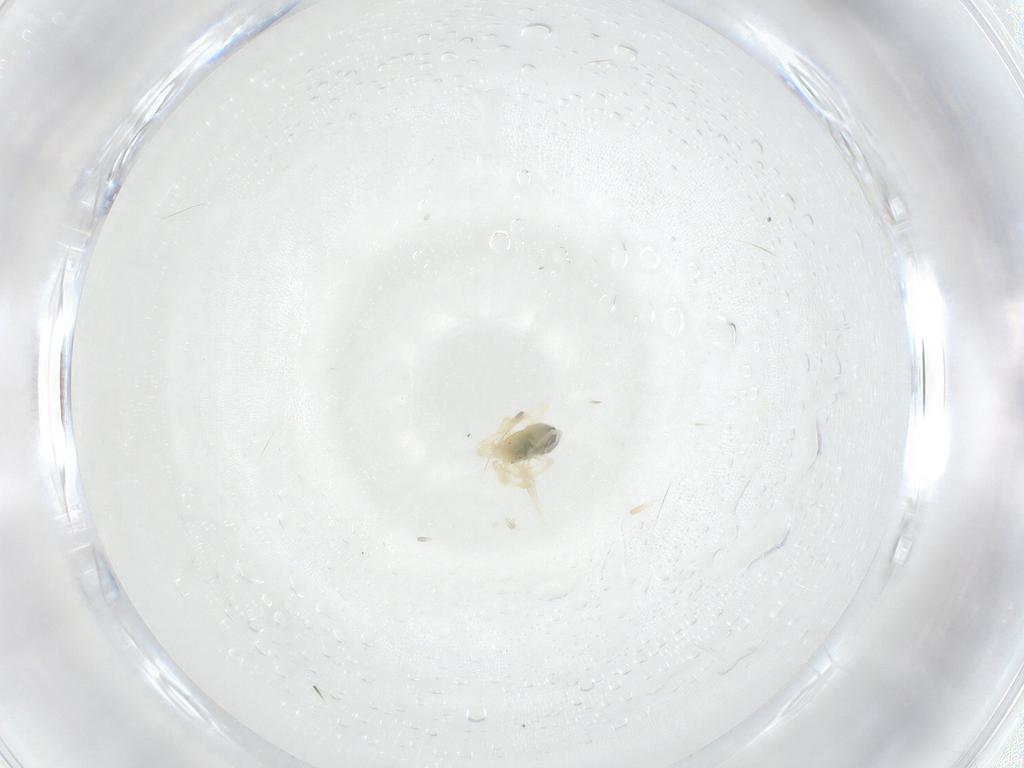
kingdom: Animalia
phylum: Arthropoda
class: Arachnida
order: Trombidiformes
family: Anystidae
